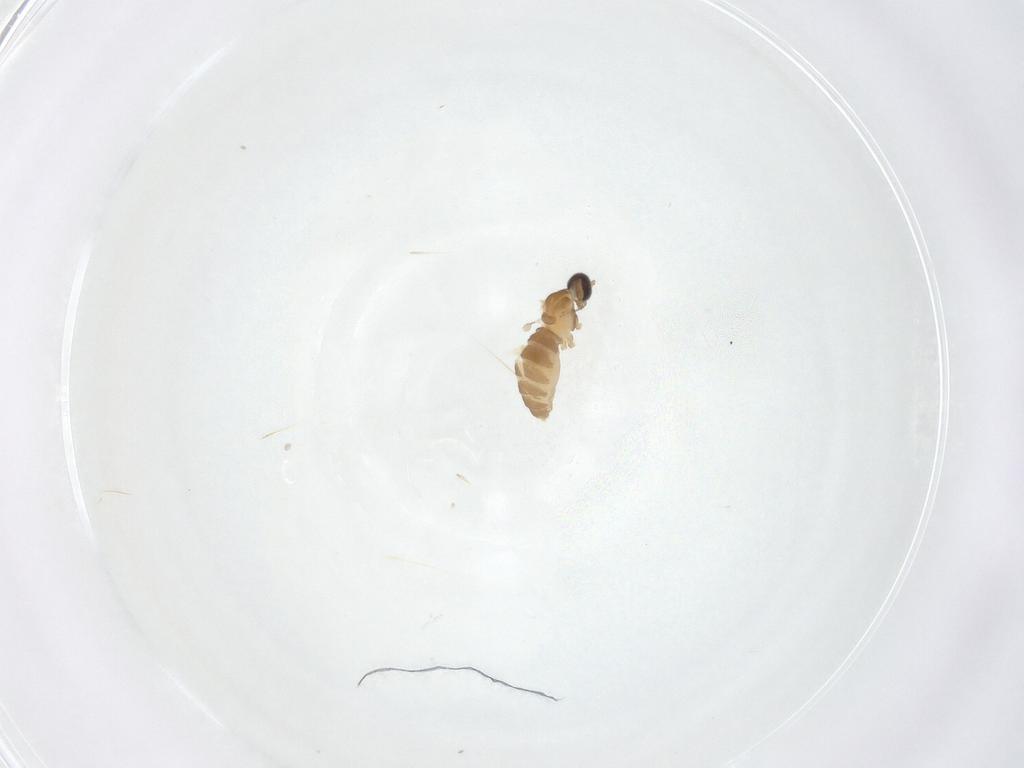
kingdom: Animalia
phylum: Arthropoda
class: Insecta
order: Diptera
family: Cecidomyiidae
